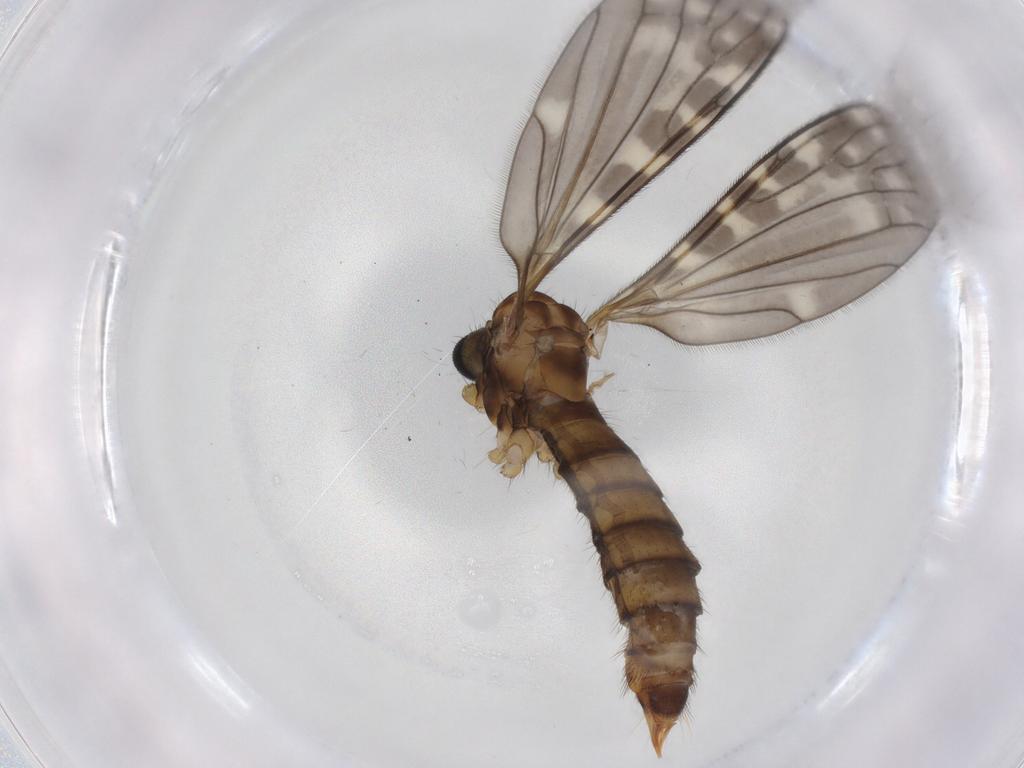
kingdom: Animalia
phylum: Arthropoda
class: Insecta
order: Diptera
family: Limoniidae
